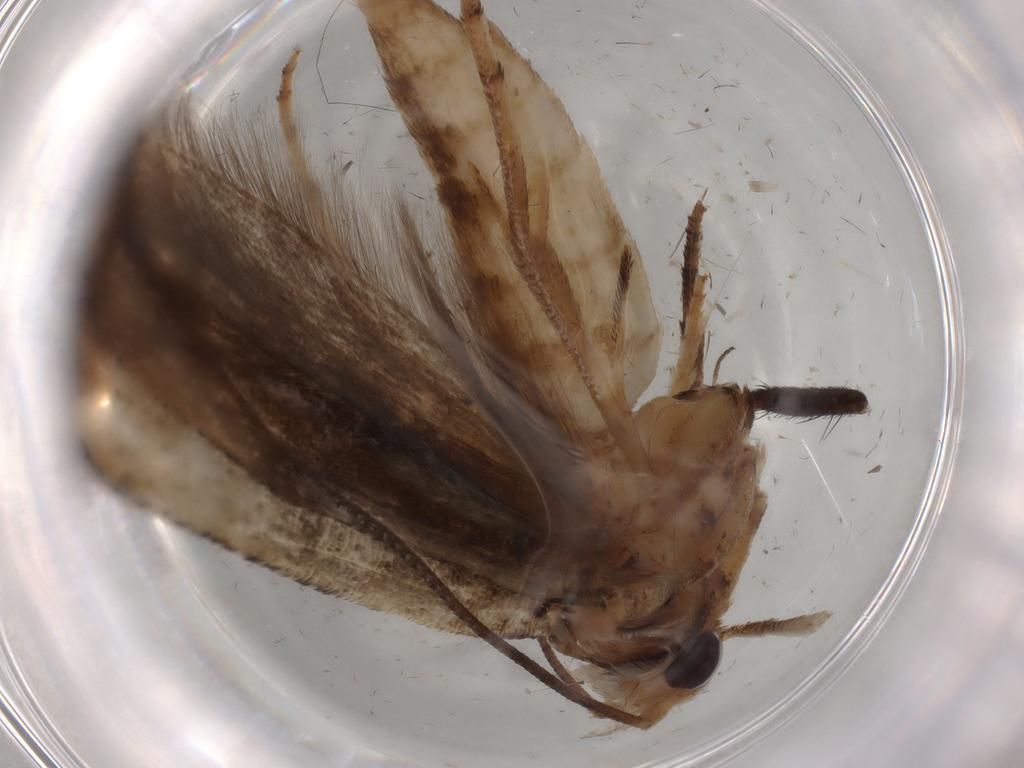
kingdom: Animalia
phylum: Arthropoda
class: Insecta
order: Lepidoptera
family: Yponomeutidae
